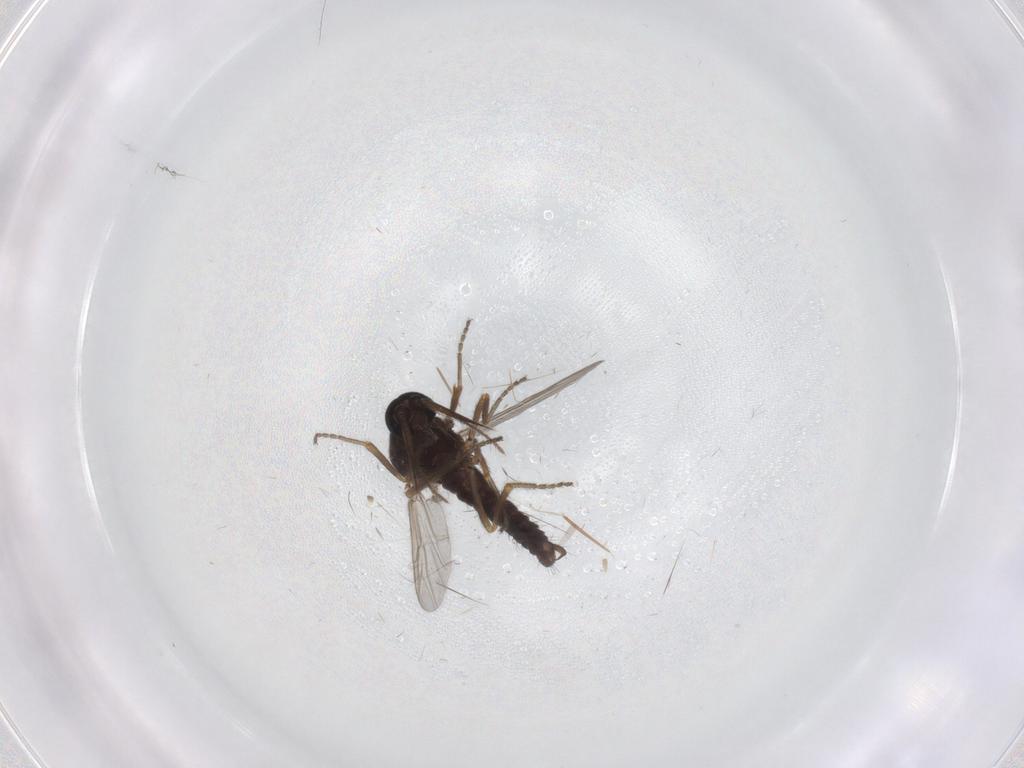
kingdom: Animalia
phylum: Arthropoda
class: Insecta
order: Diptera
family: Ceratopogonidae
